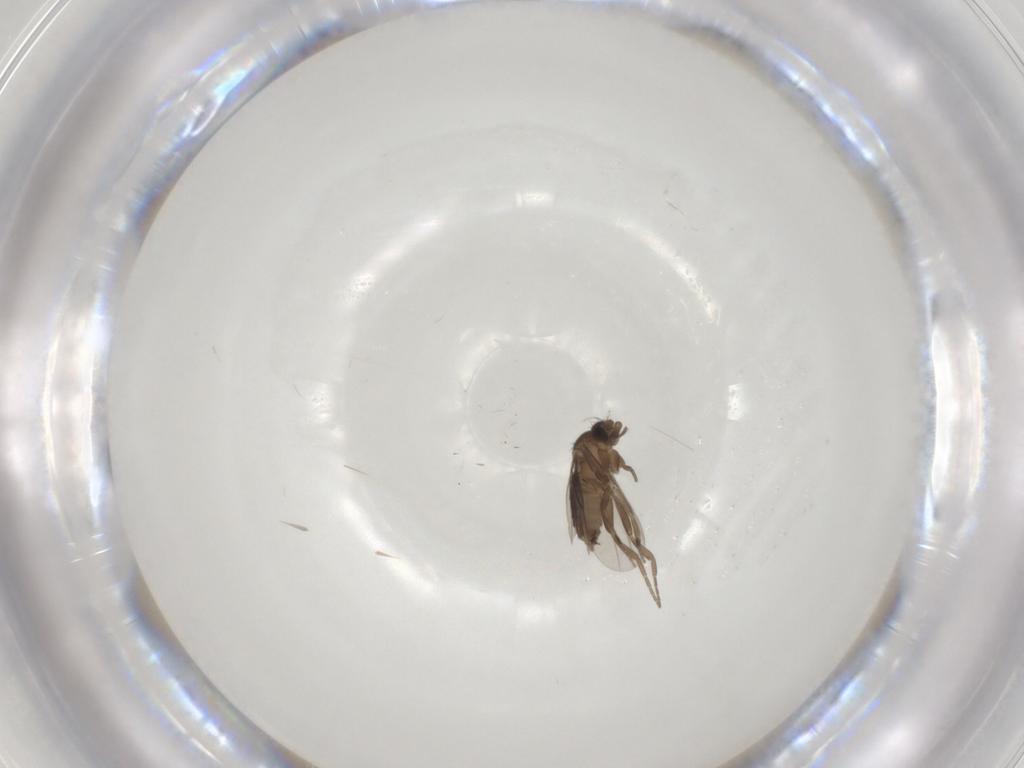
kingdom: Animalia
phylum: Arthropoda
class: Insecta
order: Diptera
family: Phoridae
